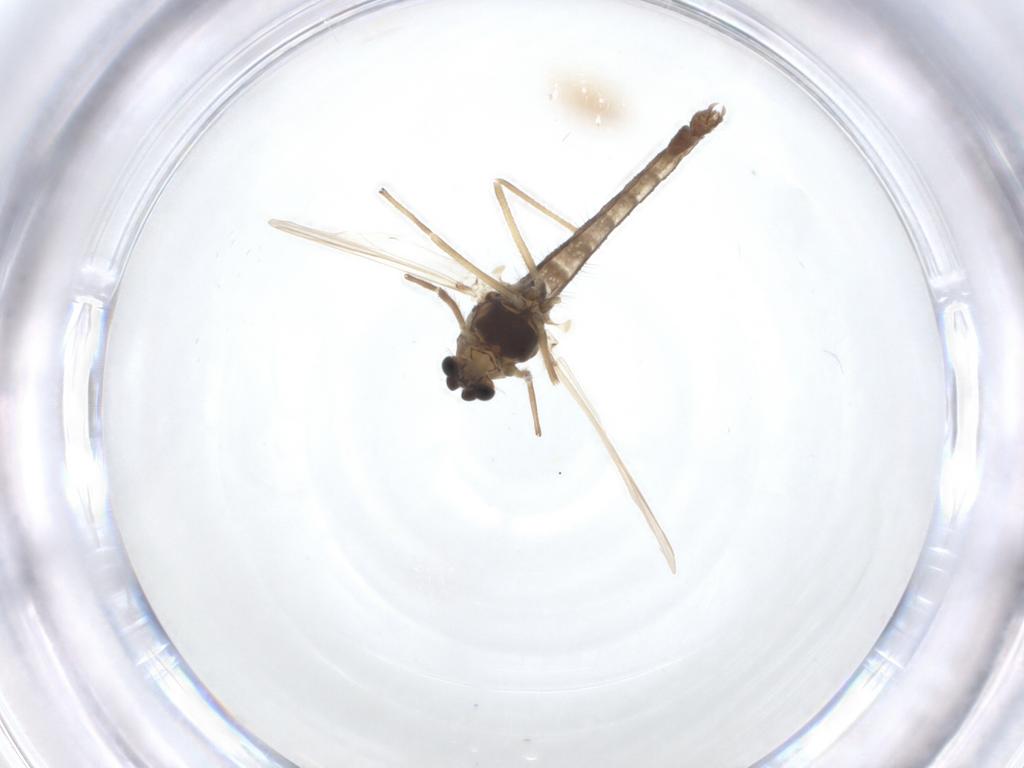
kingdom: Animalia
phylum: Arthropoda
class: Insecta
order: Diptera
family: Chironomidae
